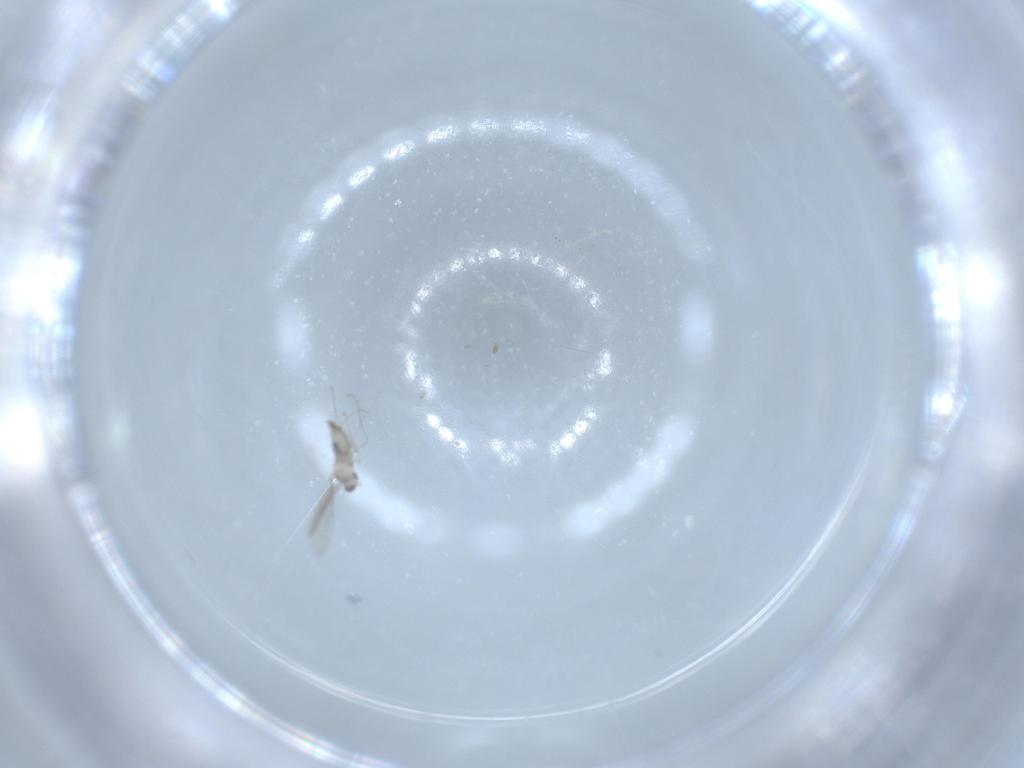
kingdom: Animalia
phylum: Arthropoda
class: Insecta
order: Diptera
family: Cecidomyiidae
